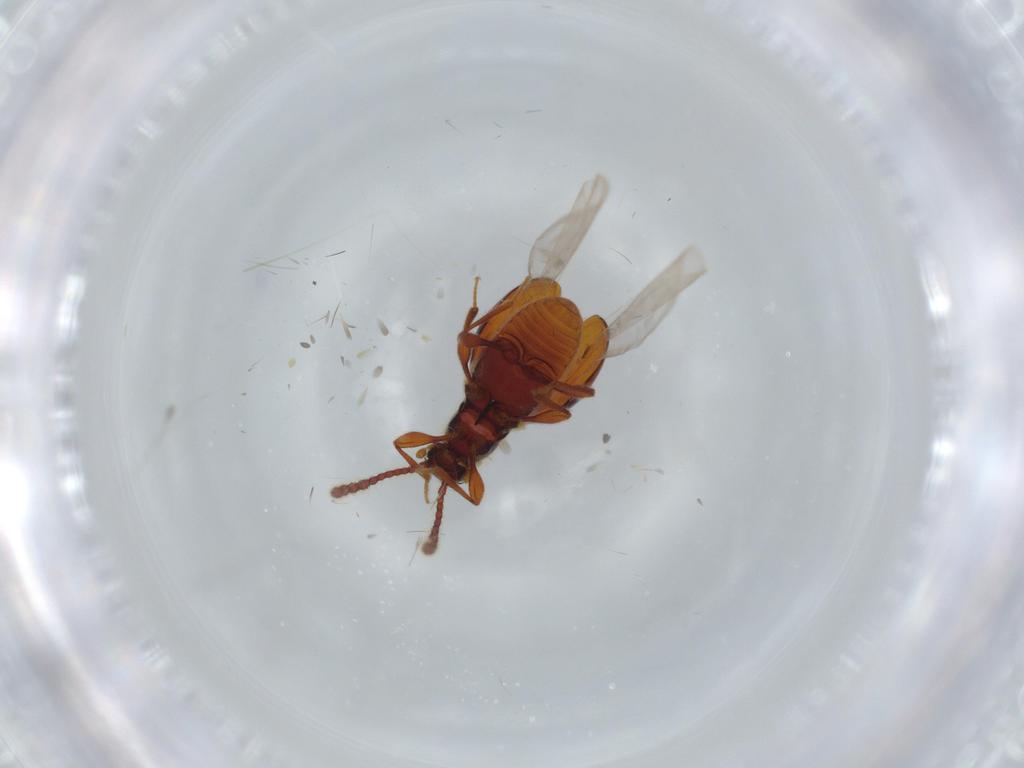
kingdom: Animalia
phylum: Arthropoda
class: Insecta
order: Coleoptera
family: Staphylinidae
